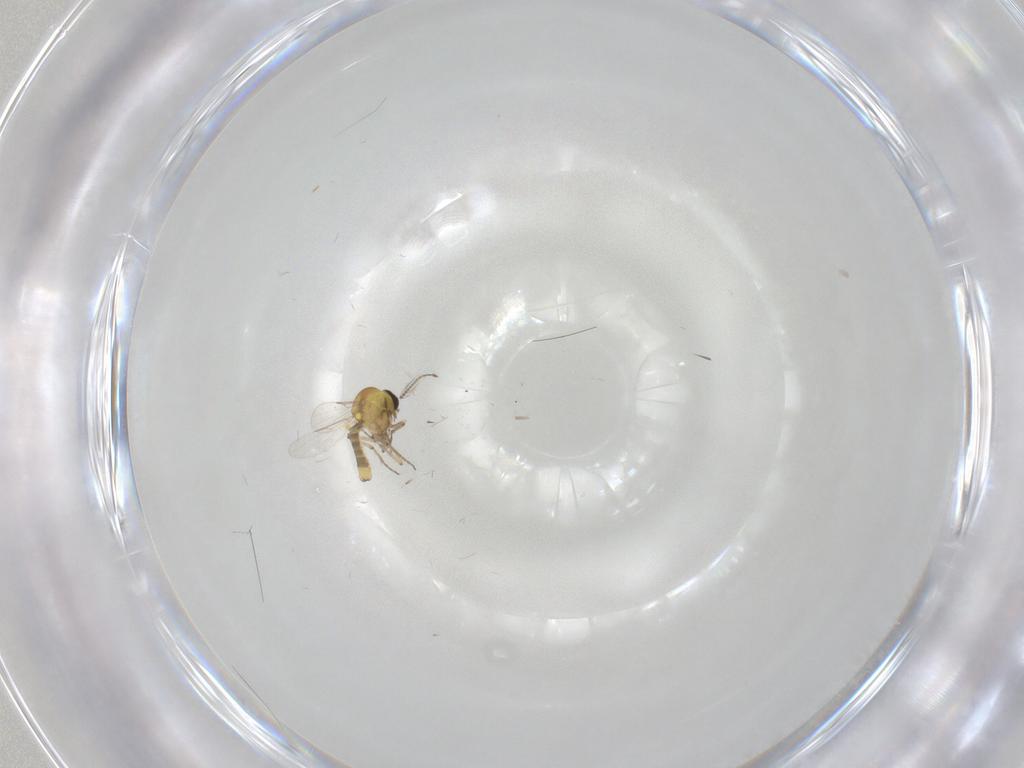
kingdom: Animalia
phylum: Arthropoda
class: Insecta
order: Diptera
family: Ceratopogonidae
